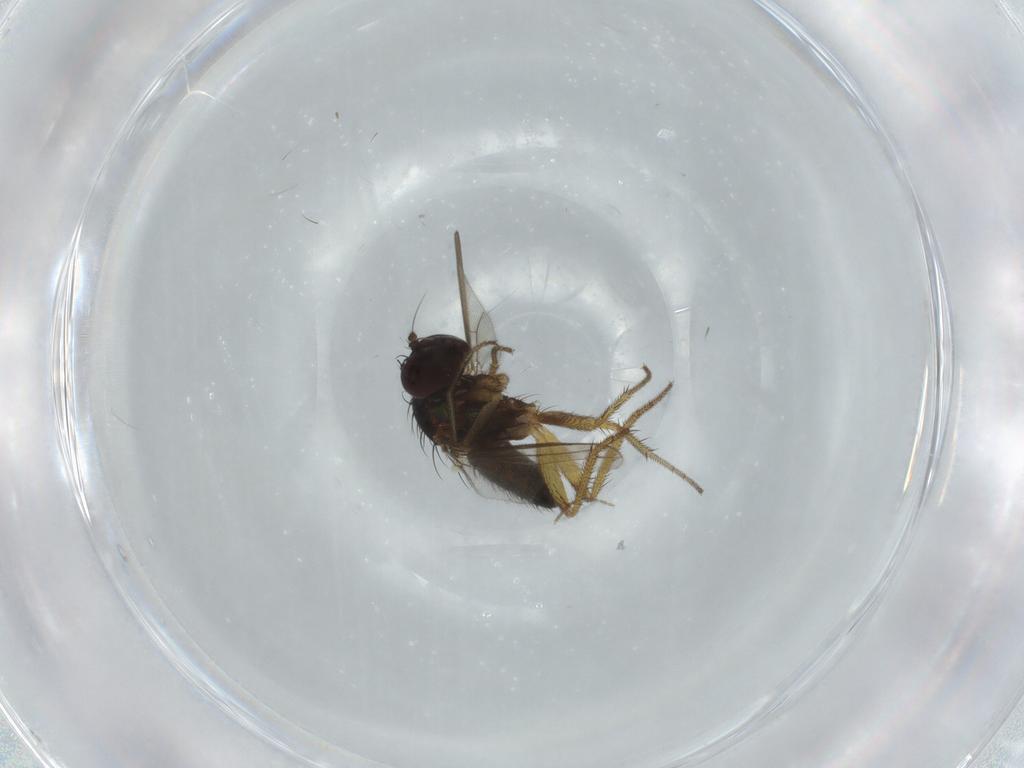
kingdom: Animalia
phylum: Arthropoda
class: Insecta
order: Diptera
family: Dolichopodidae
